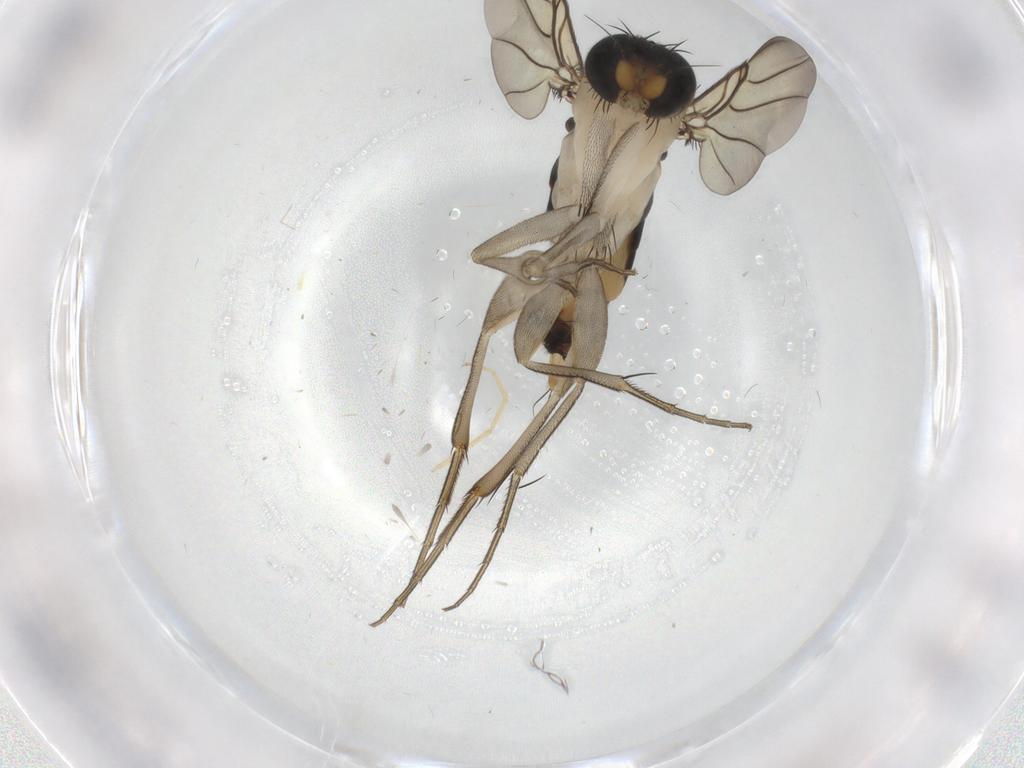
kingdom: Animalia
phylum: Arthropoda
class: Insecta
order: Diptera
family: Phoridae
